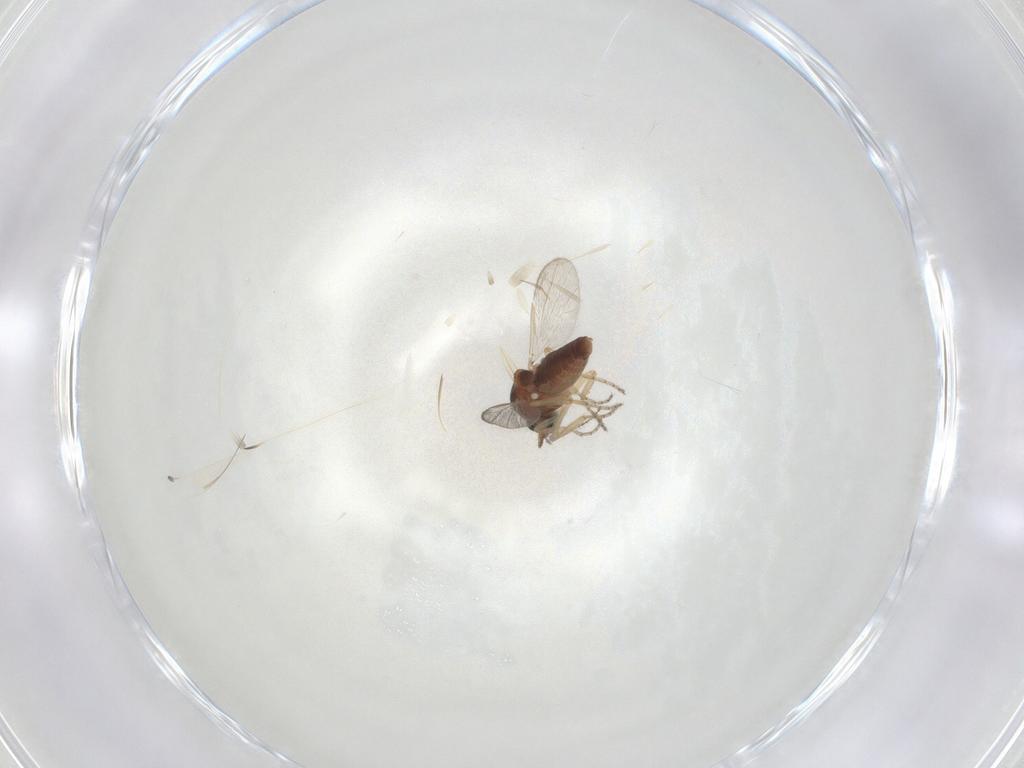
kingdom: Animalia
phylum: Arthropoda
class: Insecta
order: Diptera
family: Ceratopogonidae
